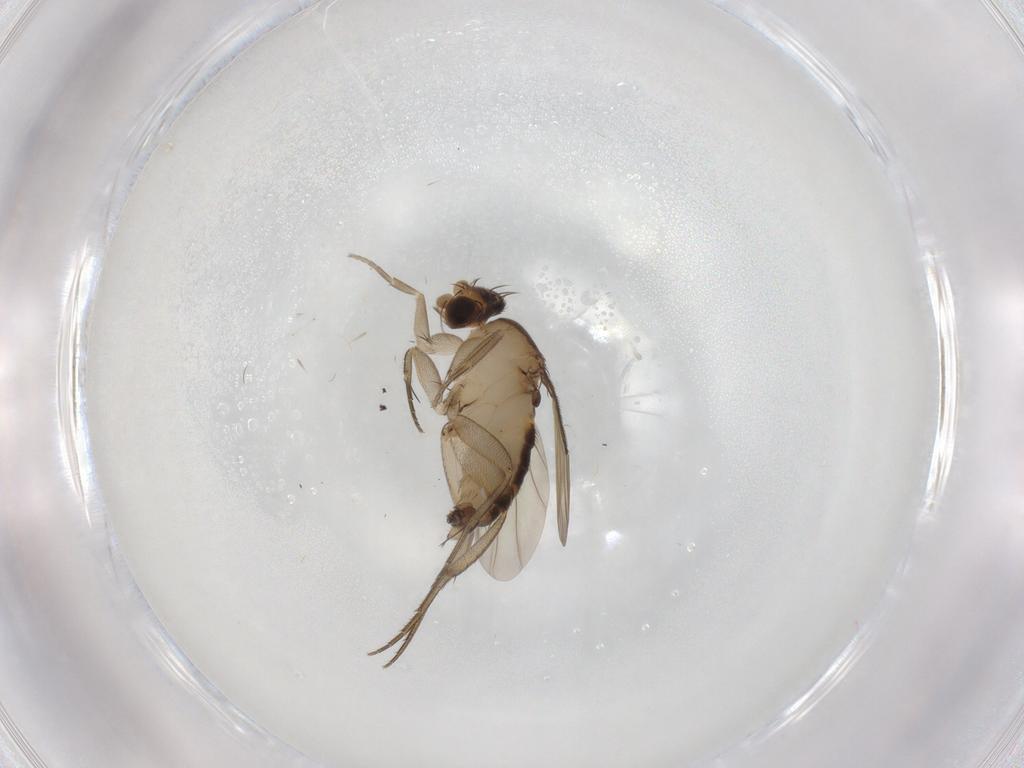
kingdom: Animalia
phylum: Arthropoda
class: Insecta
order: Diptera
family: Phoridae
